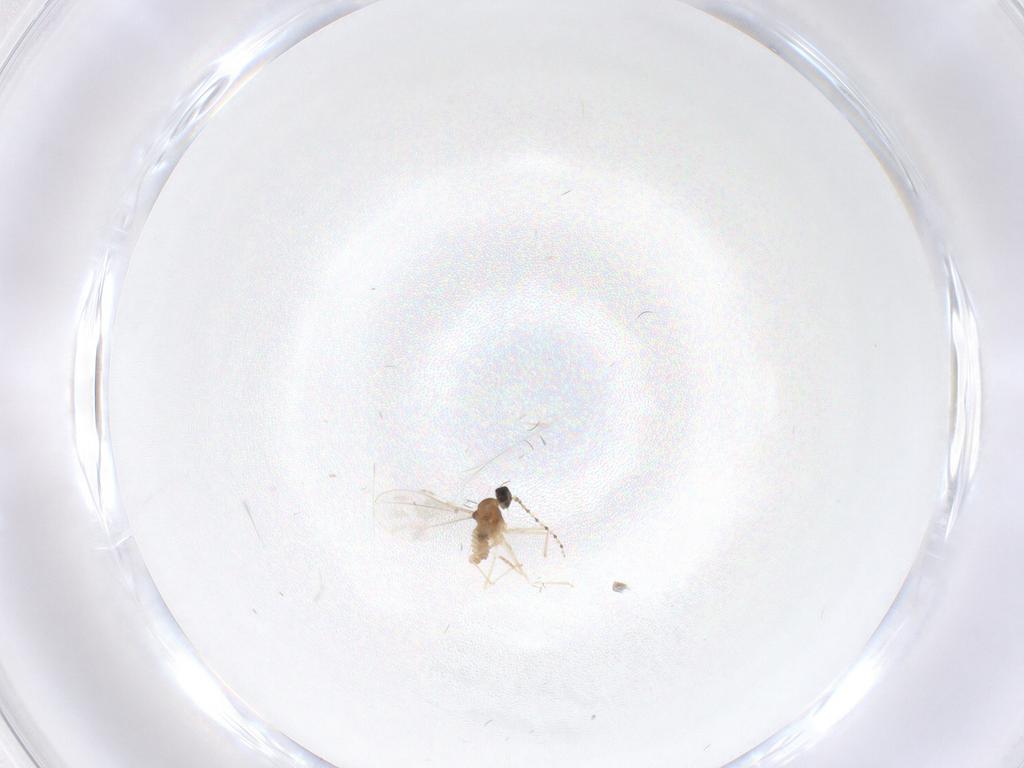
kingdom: Animalia
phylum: Arthropoda
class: Insecta
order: Diptera
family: Cecidomyiidae
